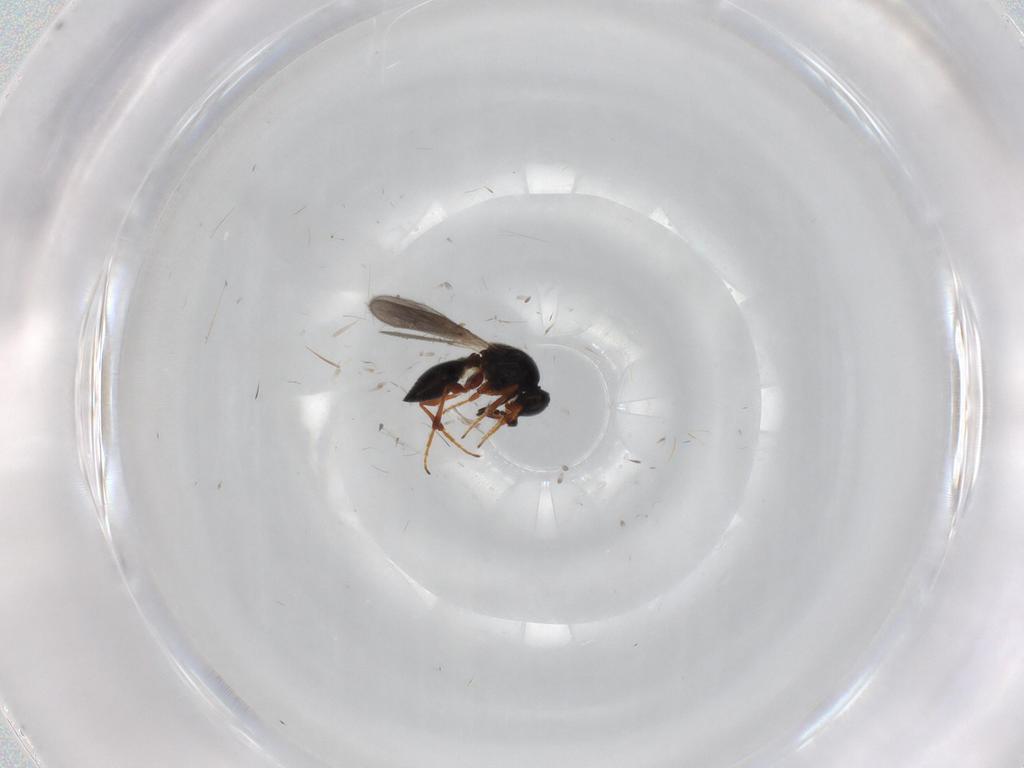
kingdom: Animalia
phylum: Arthropoda
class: Insecta
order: Hymenoptera
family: Platygastridae
